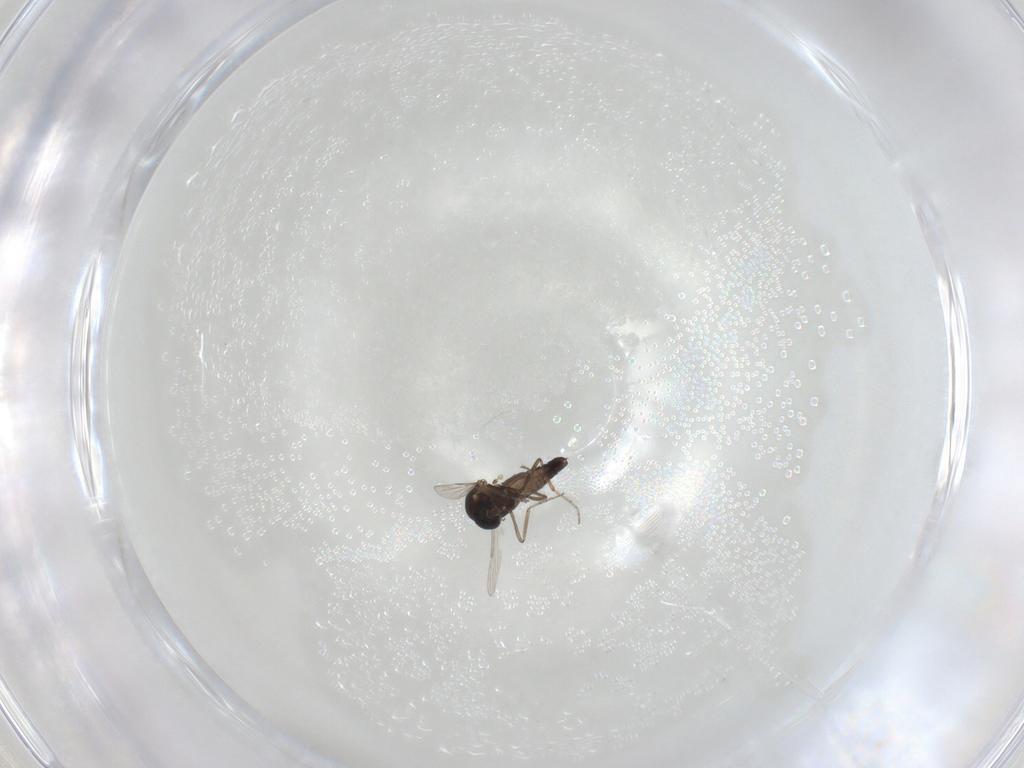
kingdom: Animalia
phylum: Arthropoda
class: Insecta
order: Diptera
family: Ceratopogonidae
